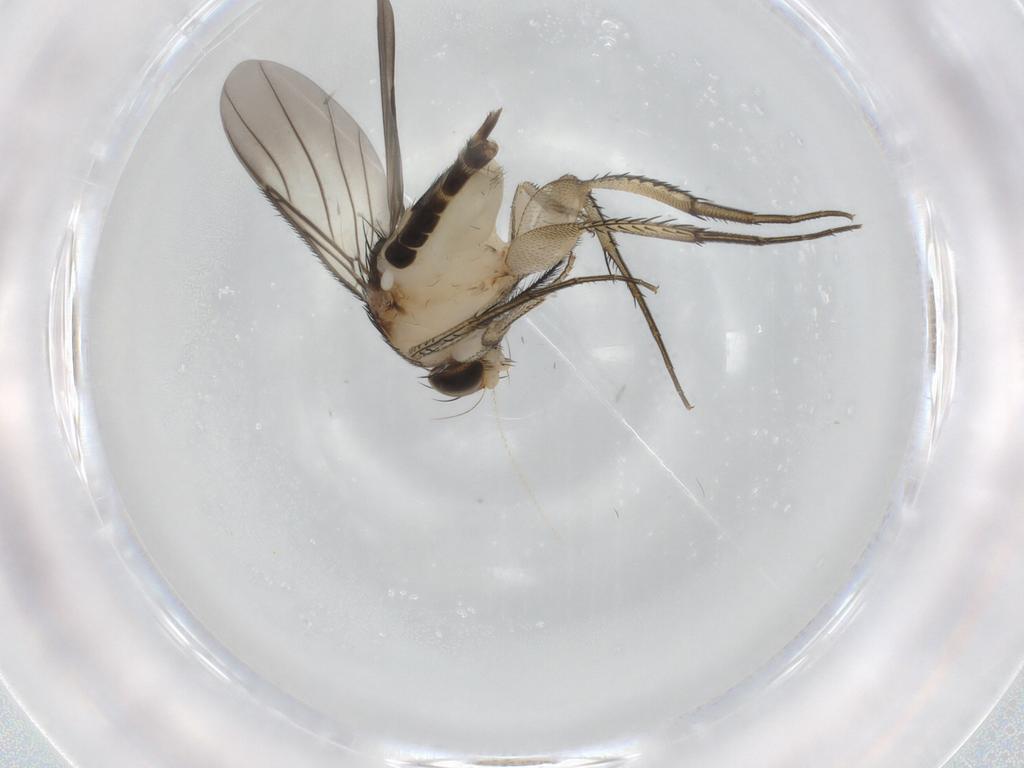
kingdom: Animalia
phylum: Arthropoda
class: Insecta
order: Diptera
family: Phoridae
